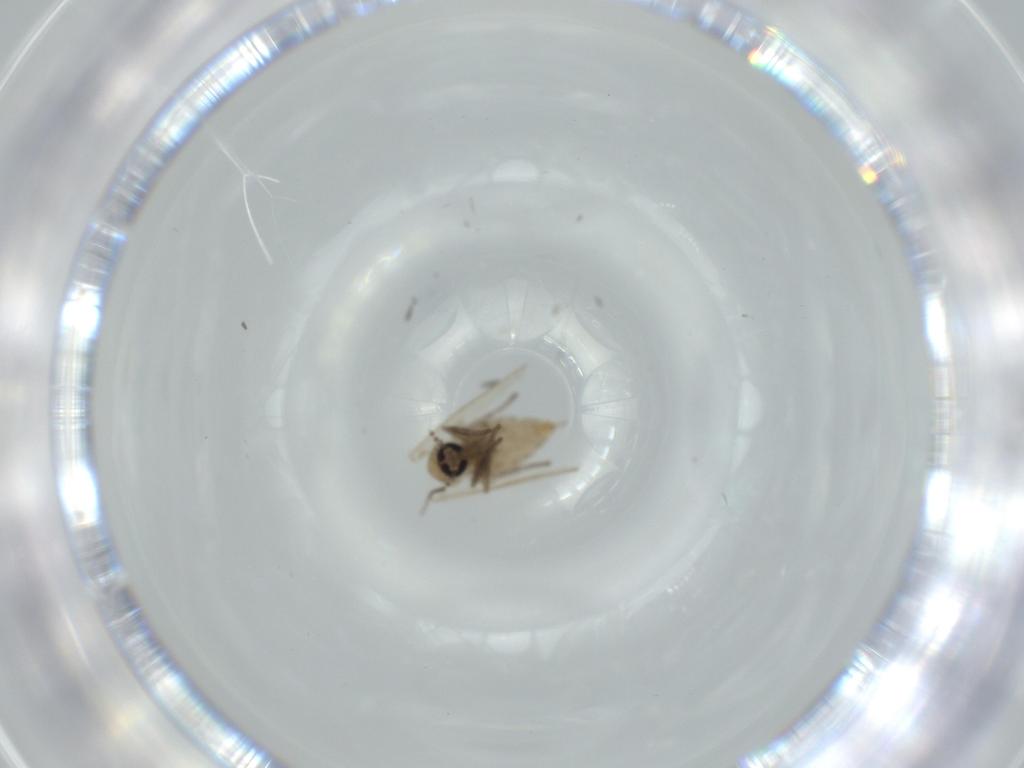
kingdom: Animalia
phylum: Arthropoda
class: Insecta
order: Diptera
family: Psychodidae
